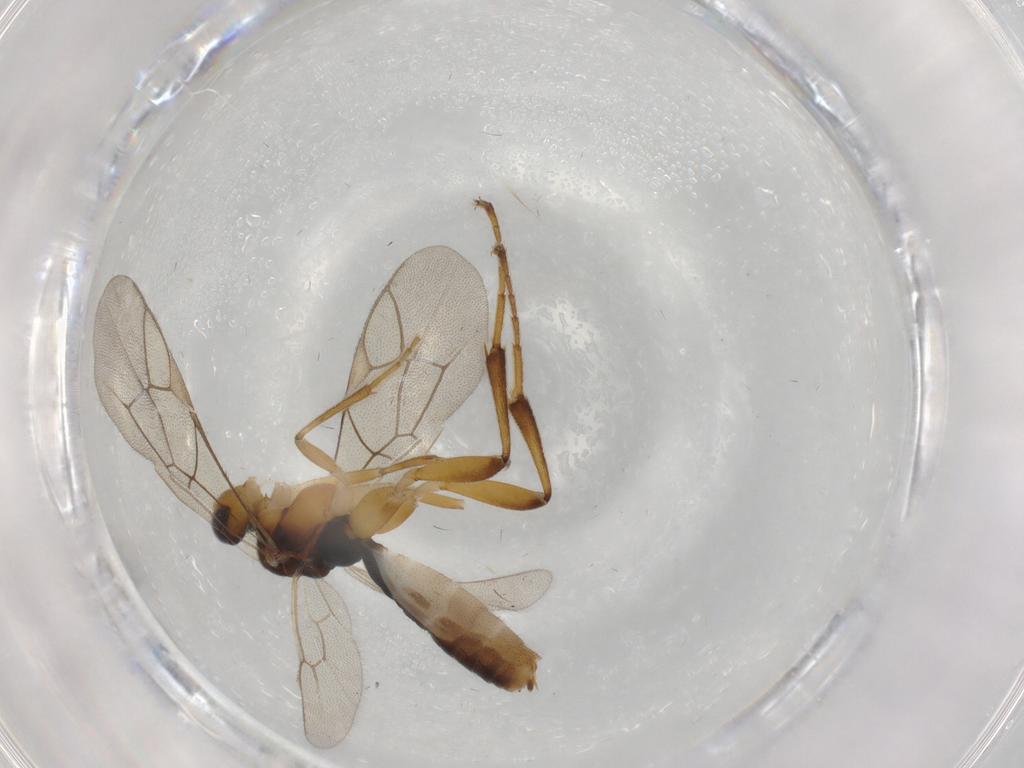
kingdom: Animalia
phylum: Arthropoda
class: Insecta
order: Hymenoptera
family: Ichneumonidae
